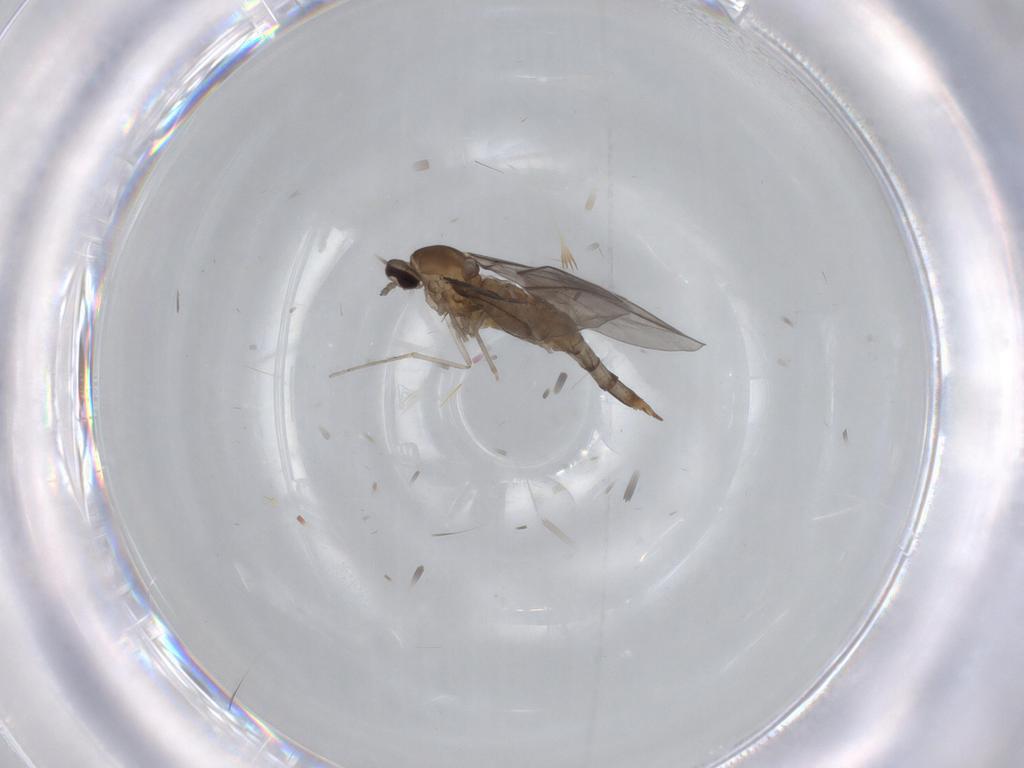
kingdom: Animalia
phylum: Arthropoda
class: Insecta
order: Diptera
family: Cecidomyiidae
